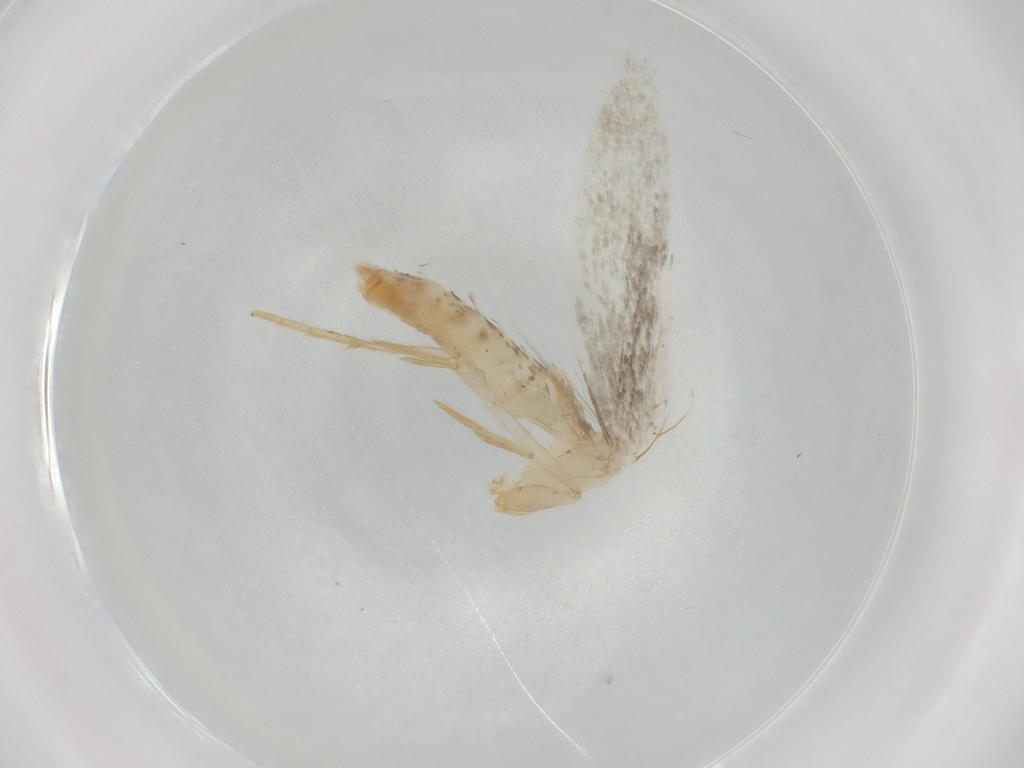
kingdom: Animalia
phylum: Arthropoda
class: Insecta
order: Lepidoptera
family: Tineidae
